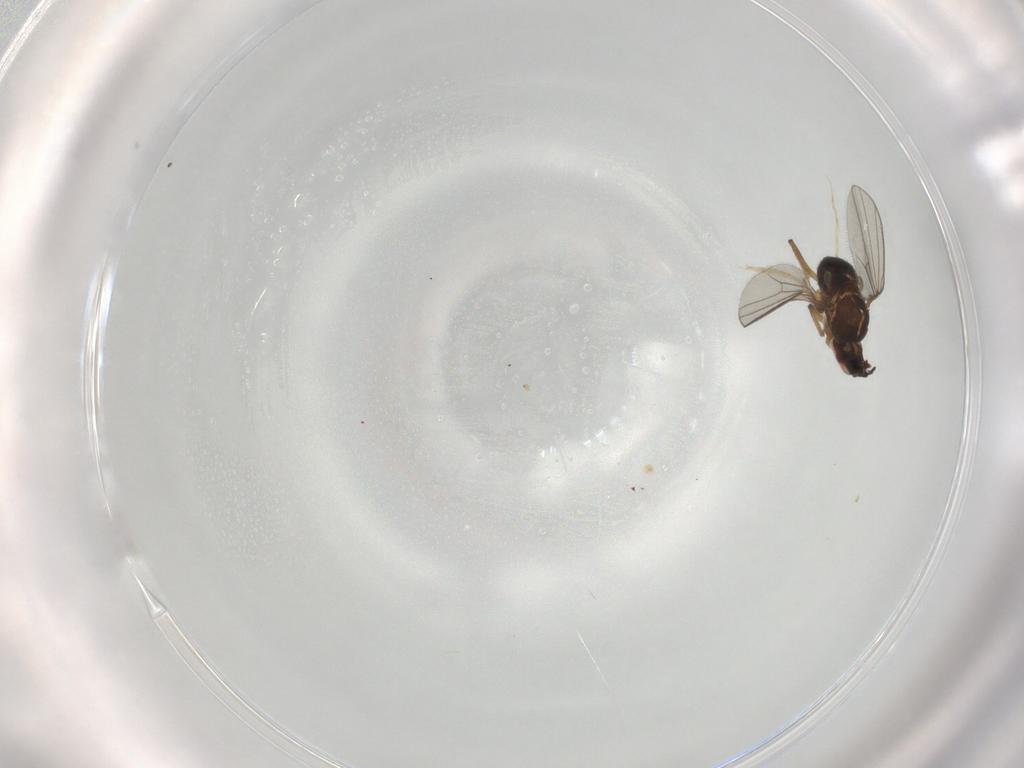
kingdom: Animalia
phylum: Arthropoda
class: Insecta
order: Diptera
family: Dolichopodidae
